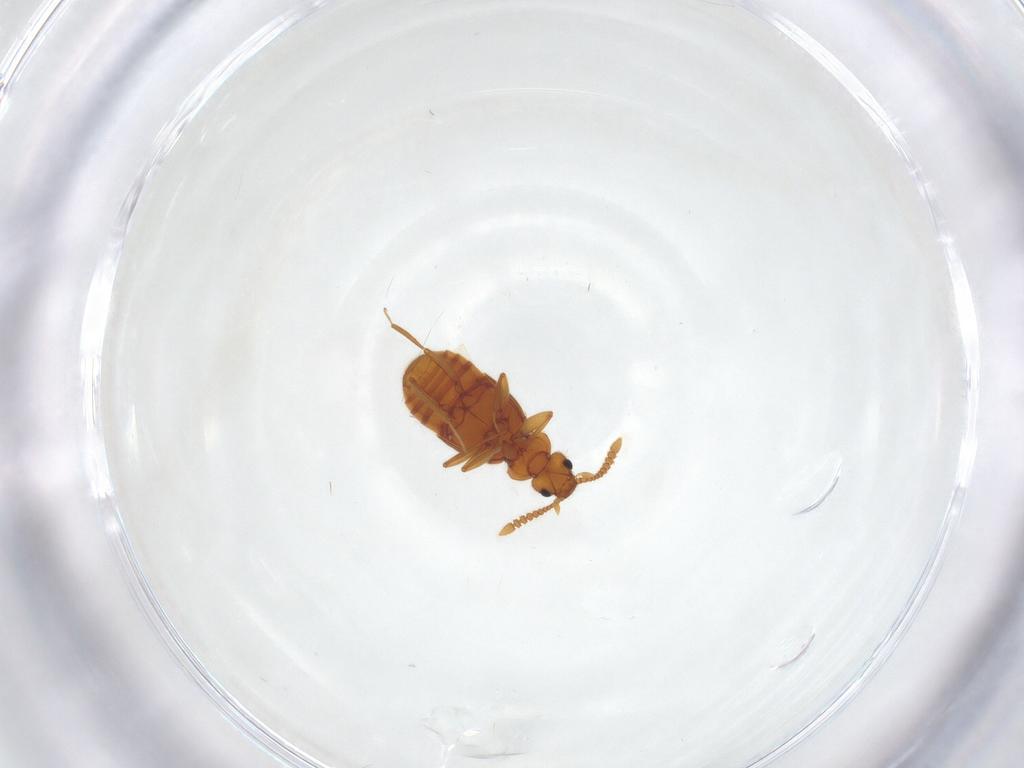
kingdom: Animalia
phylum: Arthropoda
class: Insecta
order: Coleoptera
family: Staphylinidae
